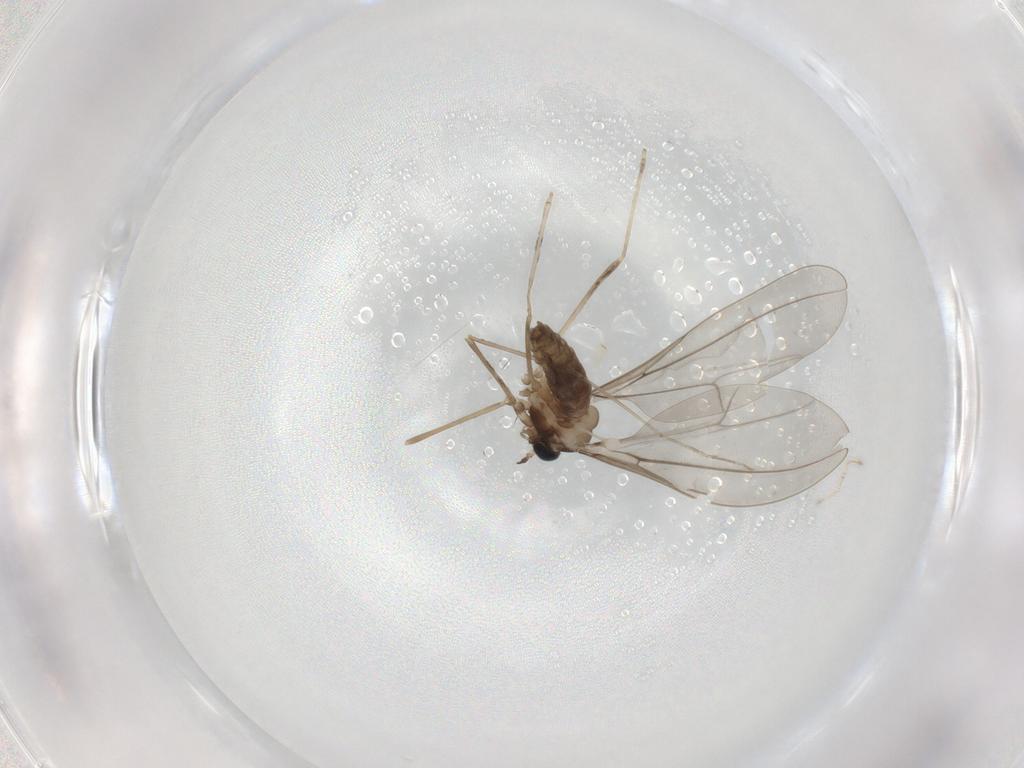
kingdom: Animalia
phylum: Arthropoda
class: Insecta
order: Diptera
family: Cecidomyiidae
